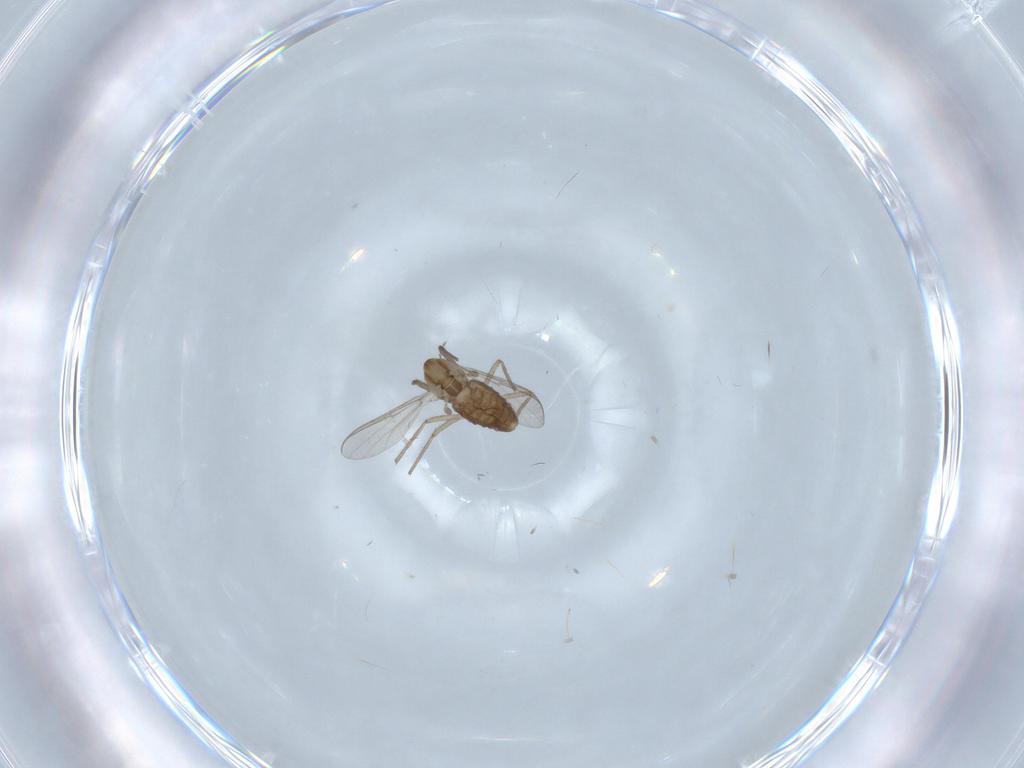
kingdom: Animalia
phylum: Arthropoda
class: Insecta
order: Diptera
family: Chironomidae
